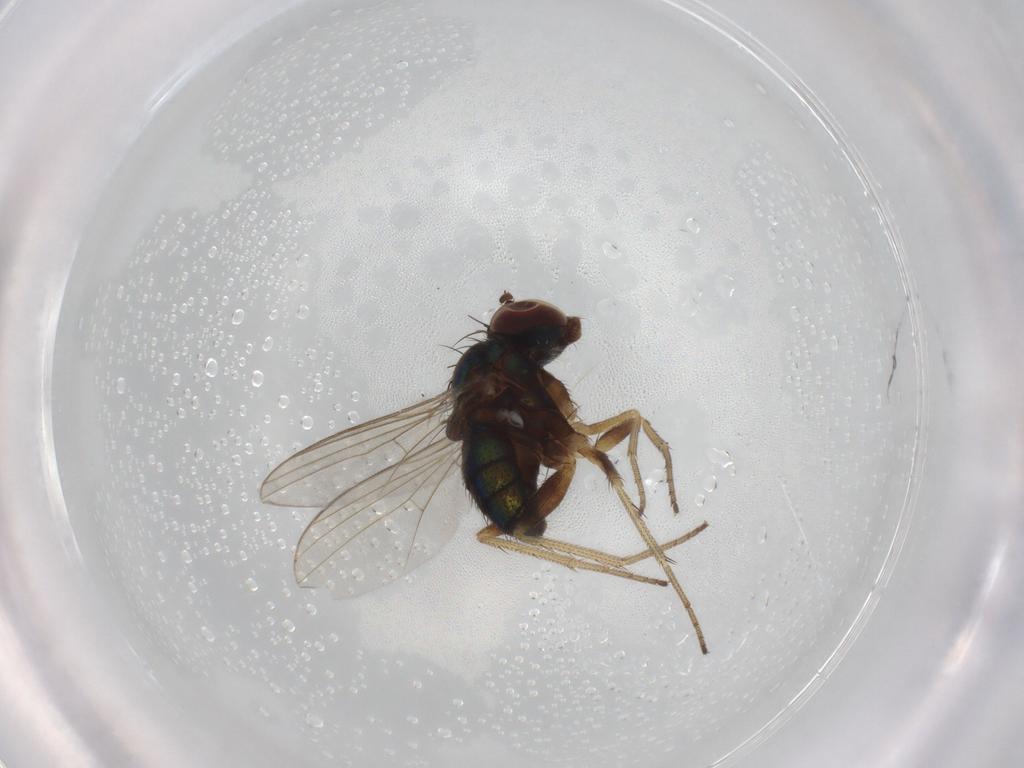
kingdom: Animalia
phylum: Arthropoda
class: Insecta
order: Diptera
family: Dolichopodidae
